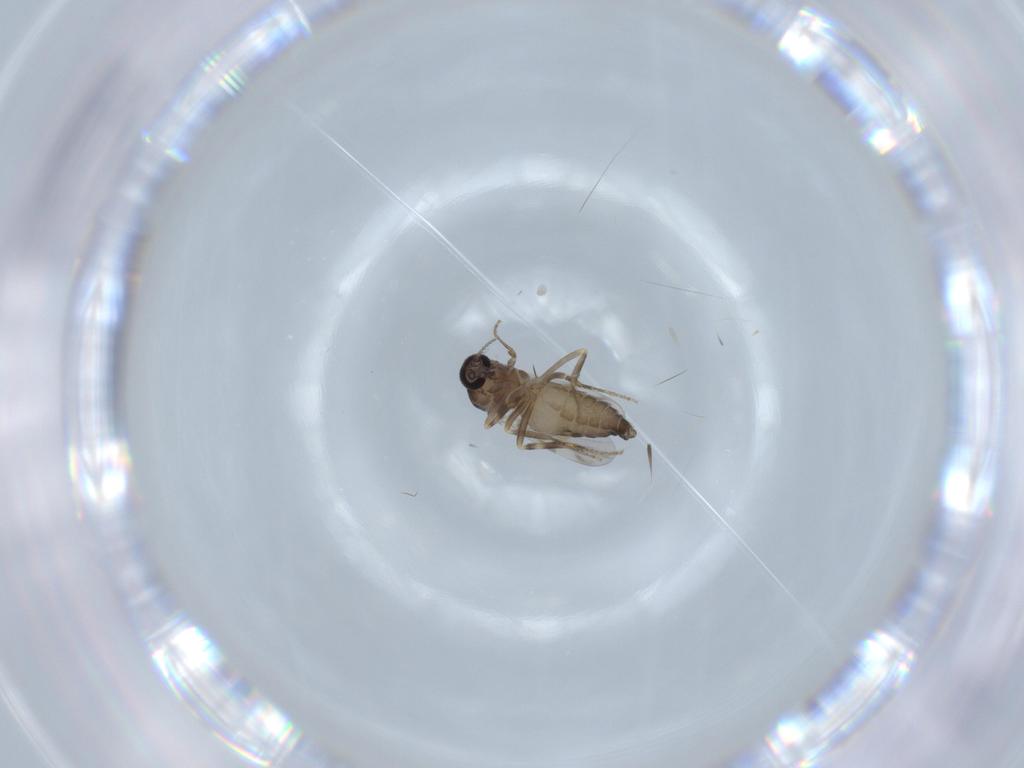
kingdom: Animalia
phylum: Arthropoda
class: Insecta
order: Diptera
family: Ceratopogonidae
